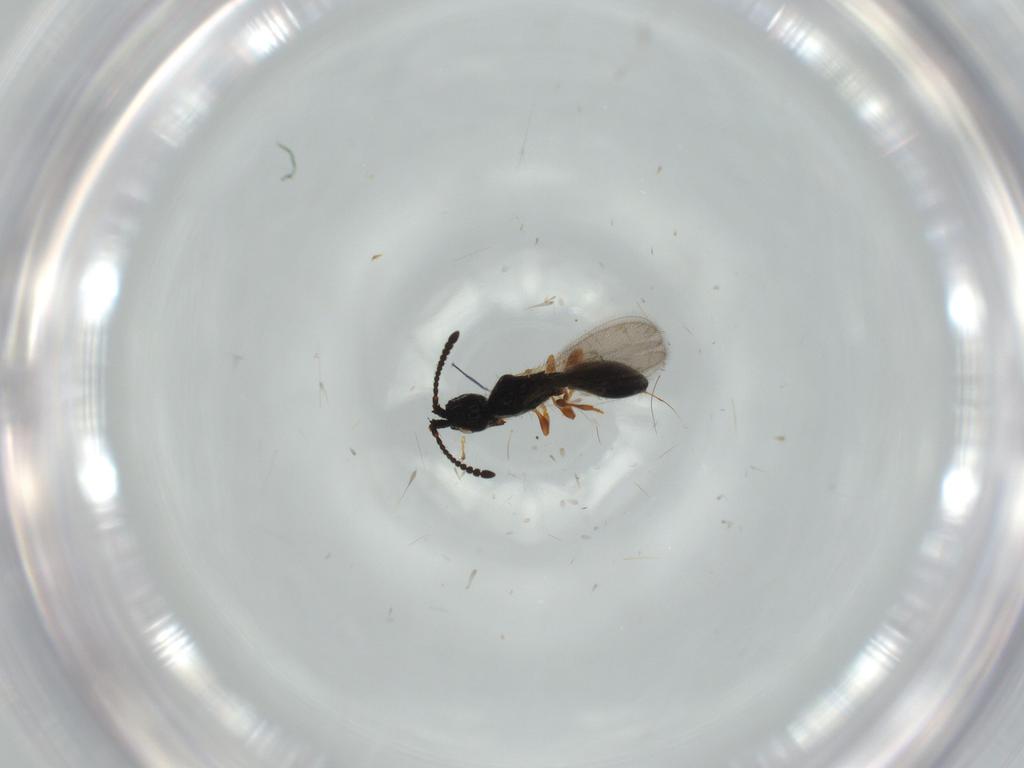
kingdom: Animalia
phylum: Arthropoda
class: Insecta
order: Hymenoptera
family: Diapriidae
